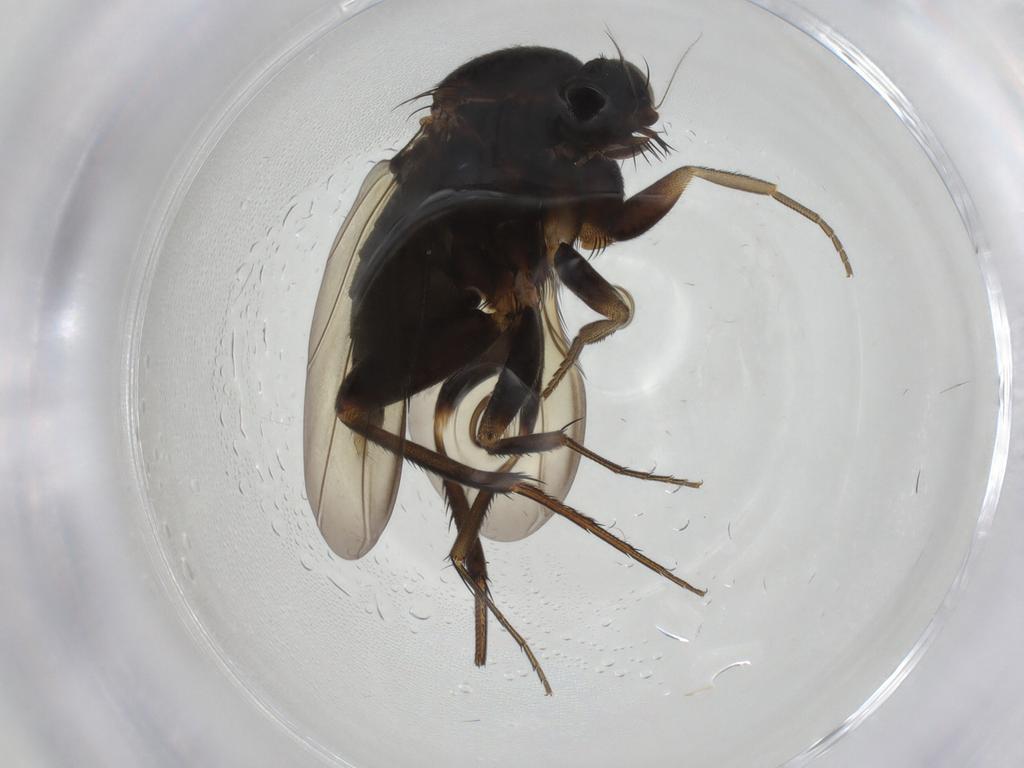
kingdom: Animalia
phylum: Arthropoda
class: Insecta
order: Diptera
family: Phoridae
